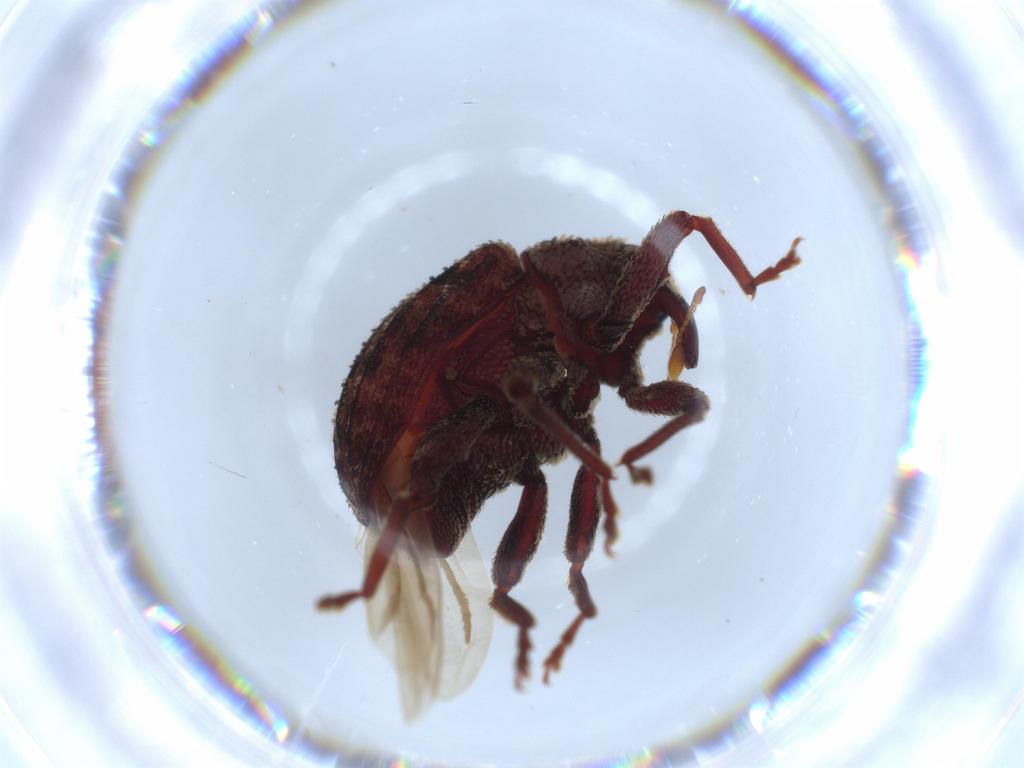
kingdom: Animalia
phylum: Arthropoda
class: Insecta
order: Coleoptera
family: Curculionidae
